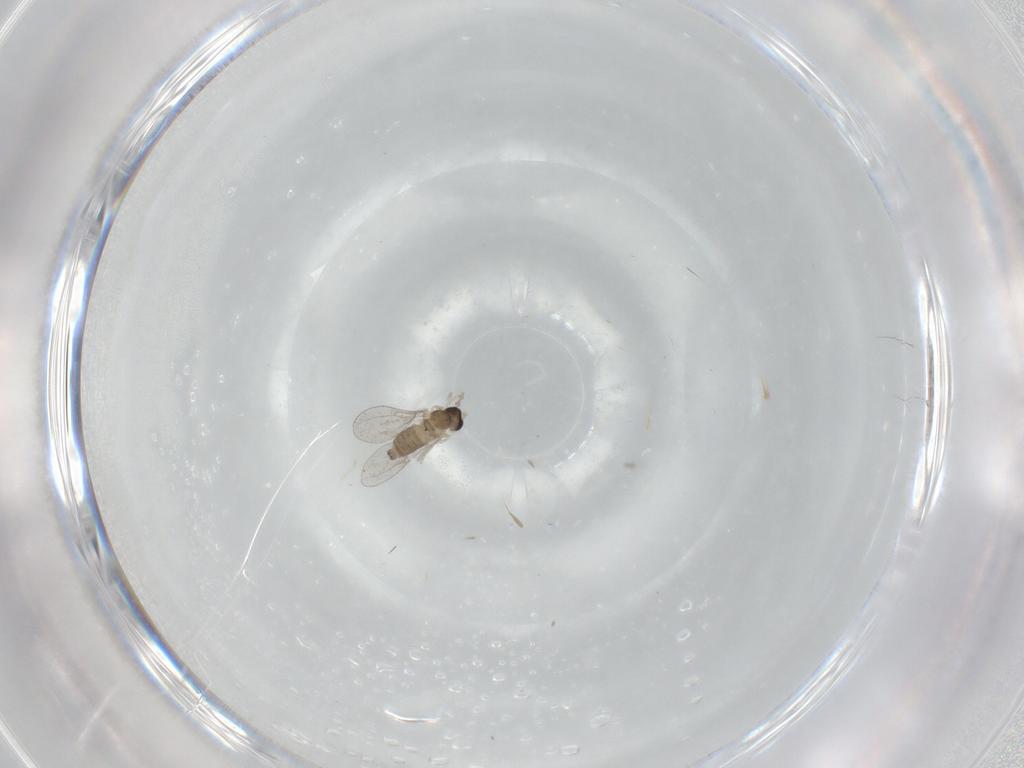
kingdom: Animalia
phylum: Arthropoda
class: Insecta
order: Diptera
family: Cecidomyiidae
